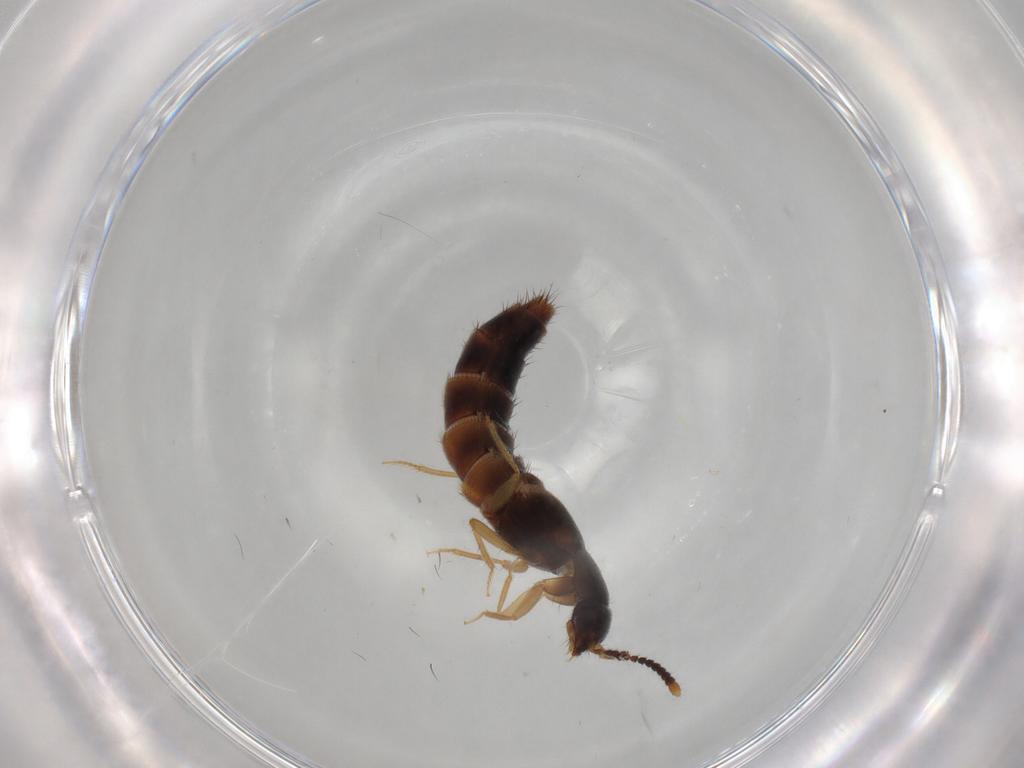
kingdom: Animalia
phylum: Arthropoda
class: Insecta
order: Coleoptera
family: Staphylinidae
